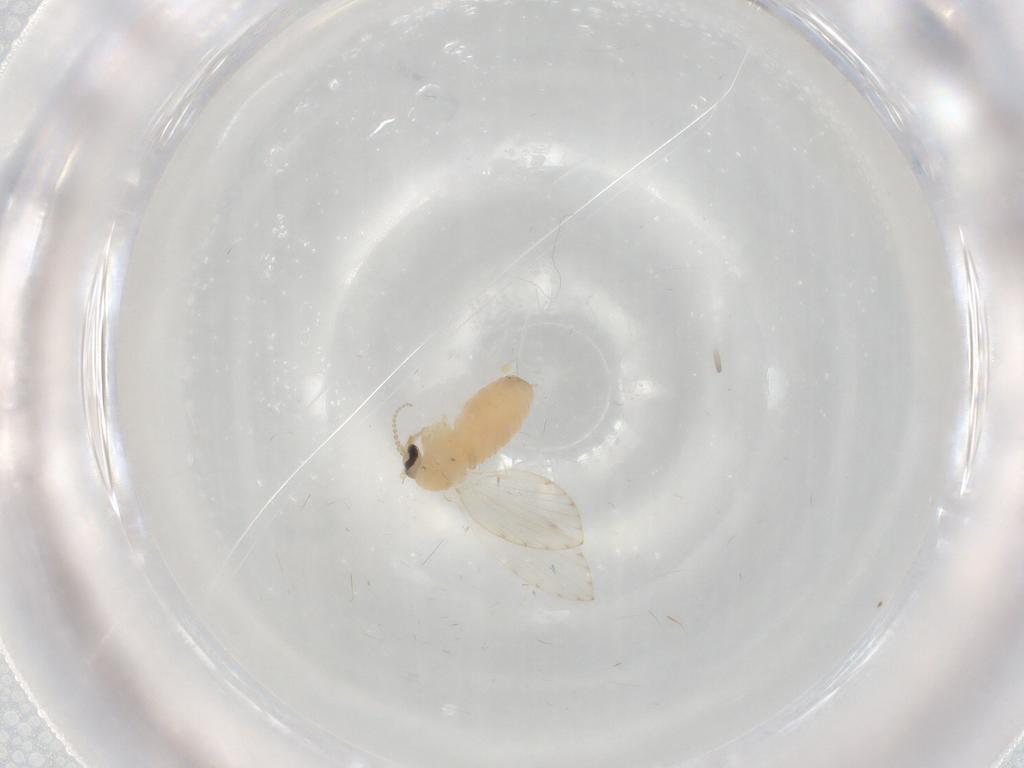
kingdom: Animalia
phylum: Arthropoda
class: Insecta
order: Diptera
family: Psychodidae
